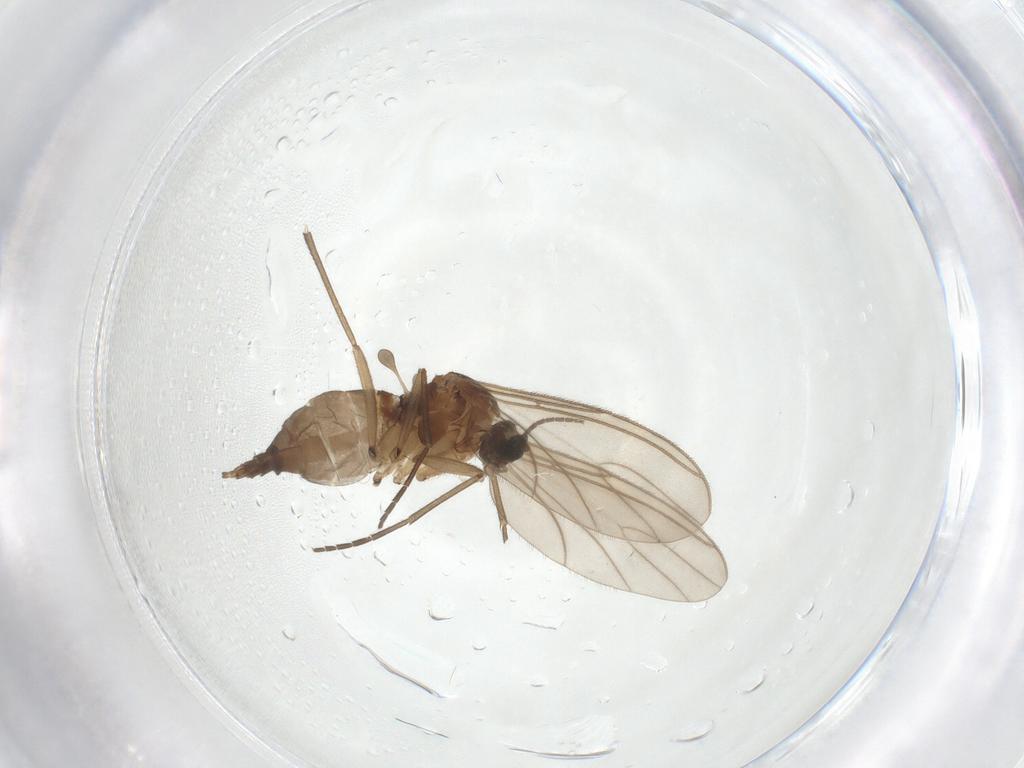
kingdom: Animalia
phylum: Arthropoda
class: Insecta
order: Diptera
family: Sciaridae
